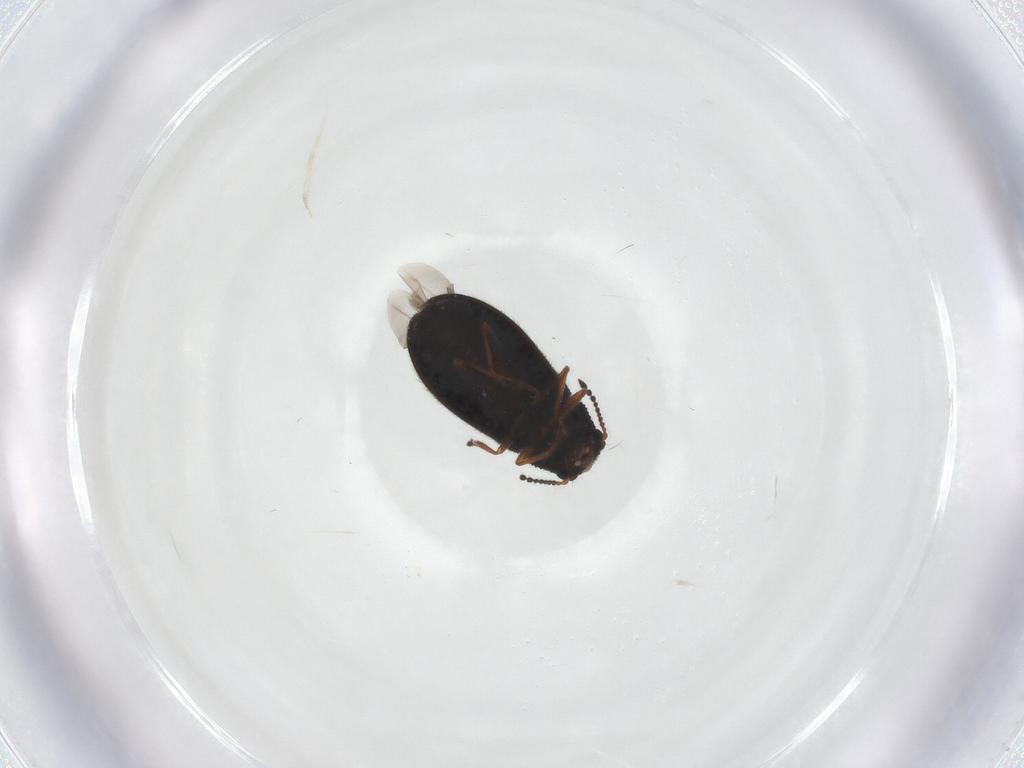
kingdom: Animalia
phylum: Arthropoda
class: Insecta
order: Coleoptera
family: Melyridae
